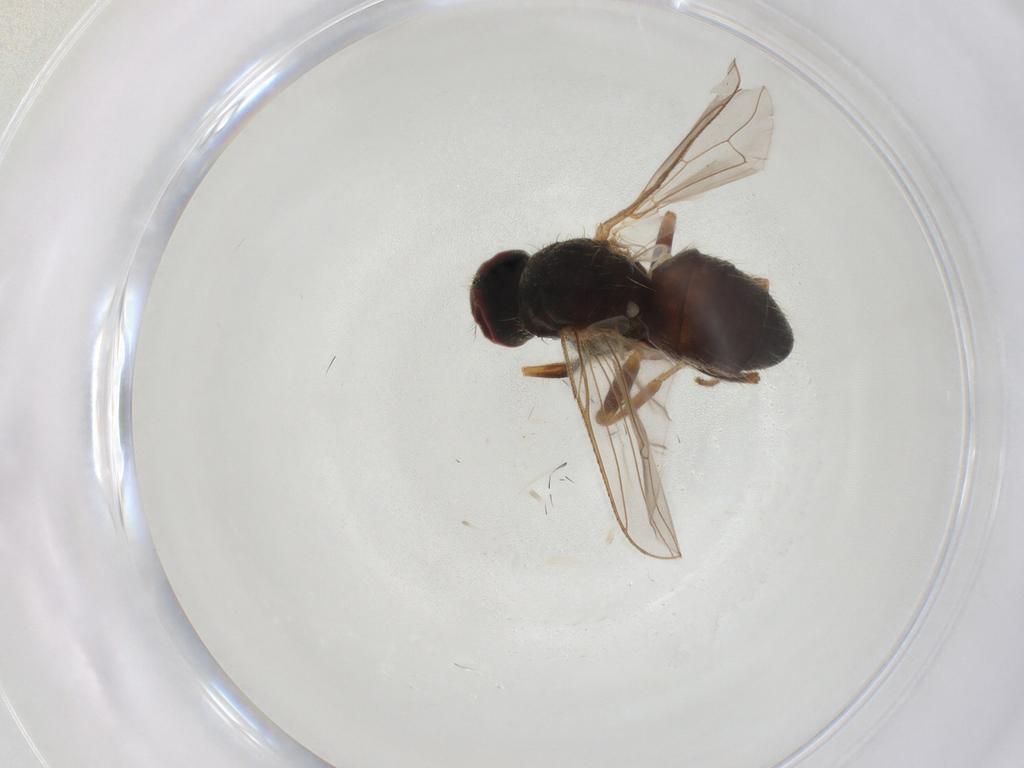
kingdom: Animalia
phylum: Arthropoda
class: Insecta
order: Diptera
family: Muscidae
